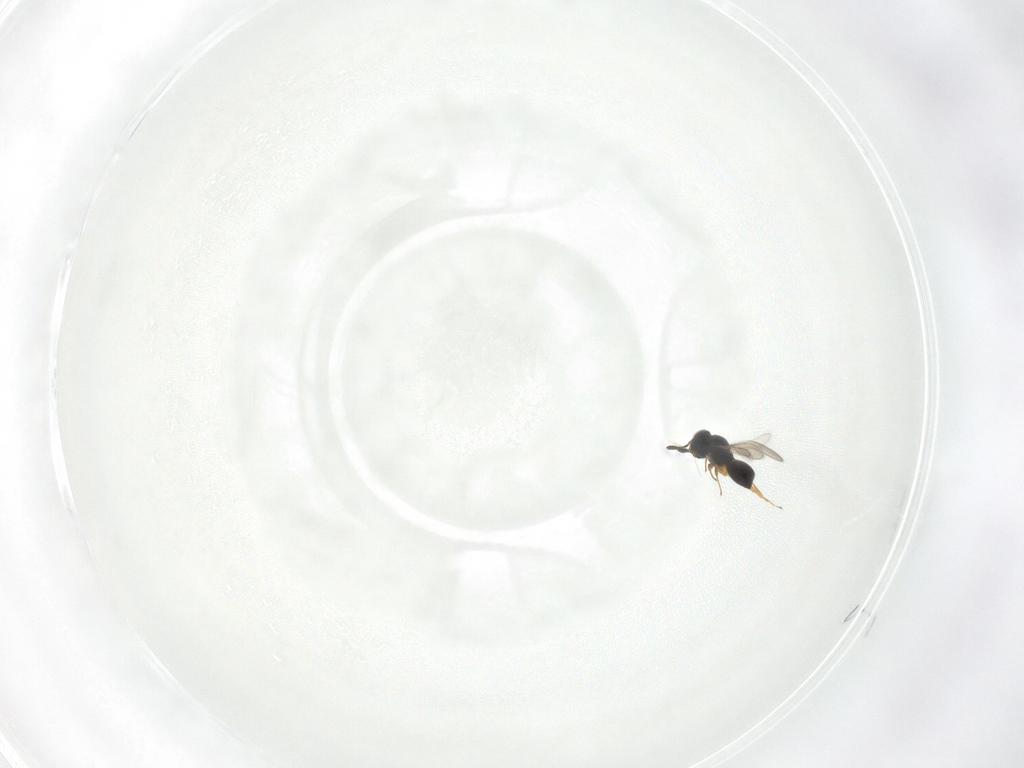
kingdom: Animalia
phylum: Arthropoda
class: Insecta
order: Hymenoptera
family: Scelionidae
